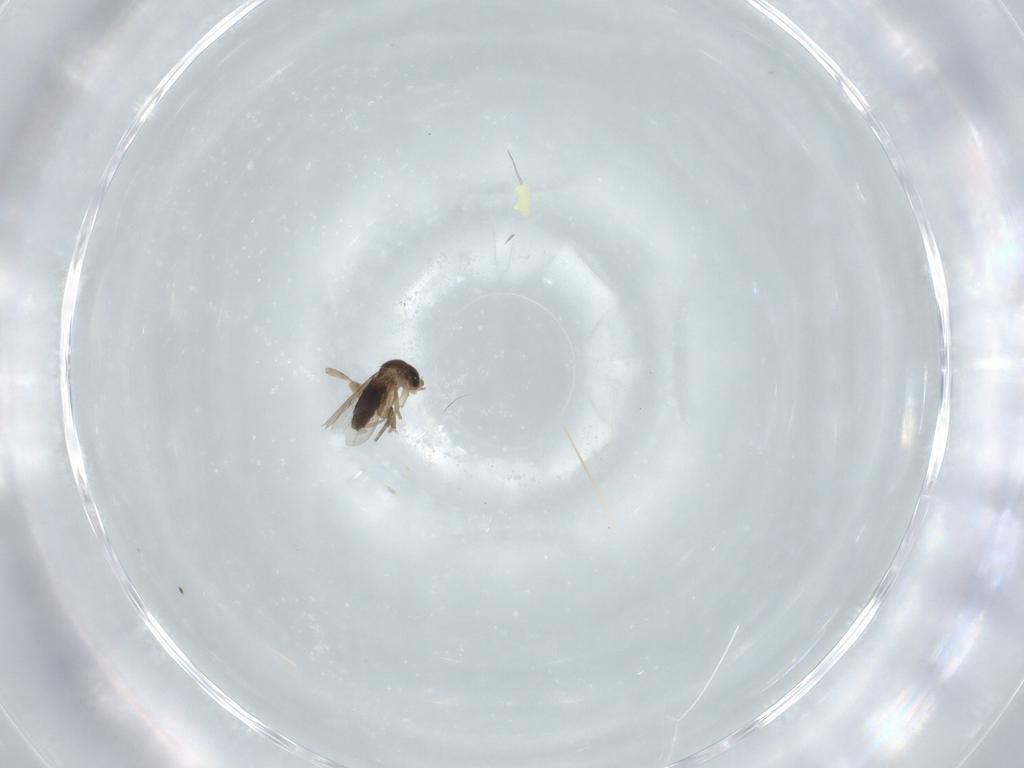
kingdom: Animalia
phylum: Arthropoda
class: Insecta
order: Diptera
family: Phoridae
